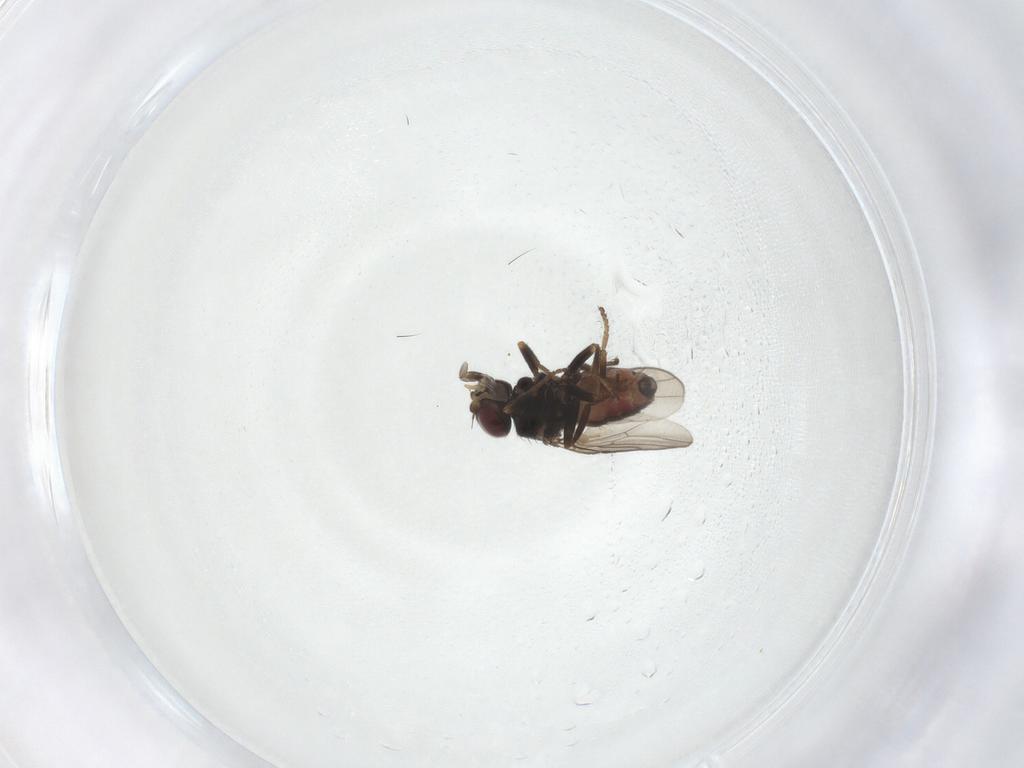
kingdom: Animalia
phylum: Arthropoda
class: Insecta
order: Diptera
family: Chloropidae
